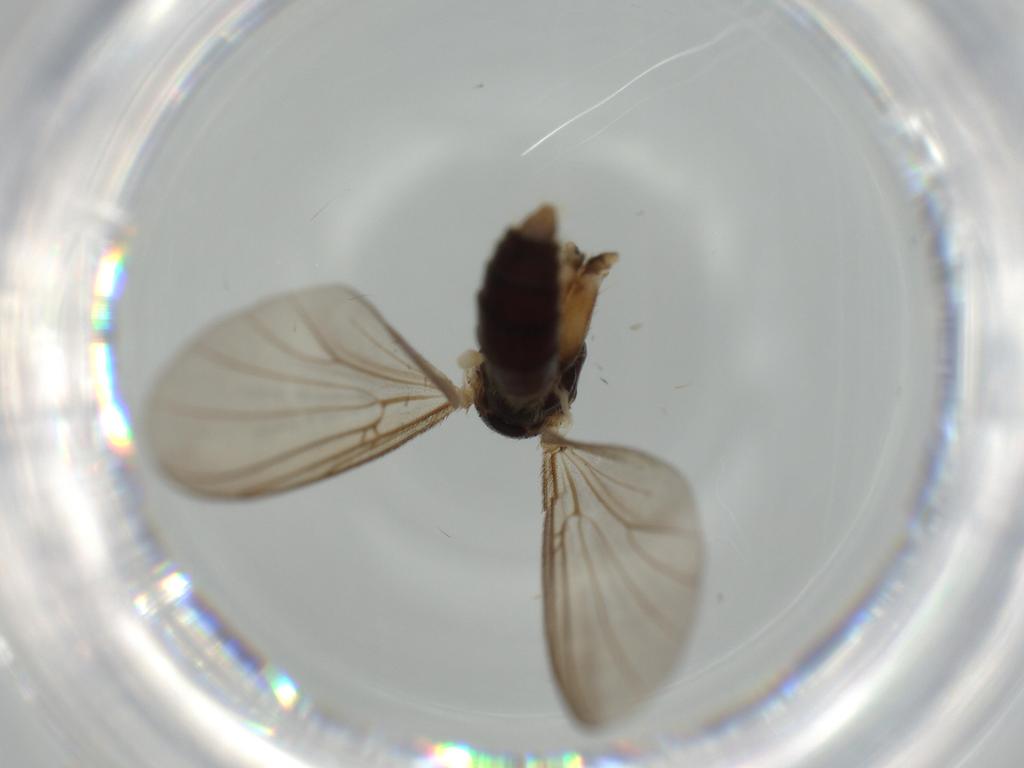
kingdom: Animalia
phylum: Arthropoda
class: Insecta
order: Diptera
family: Chironomidae
